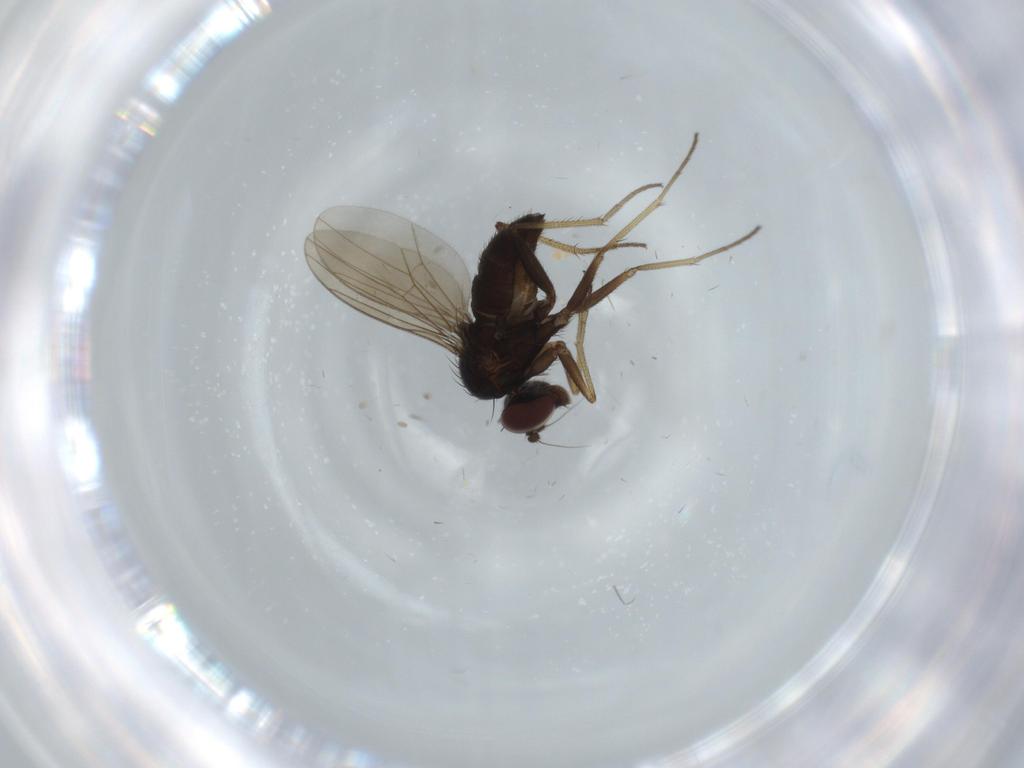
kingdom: Animalia
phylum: Arthropoda
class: Insecta
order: Diptera
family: Dolichopodidae
